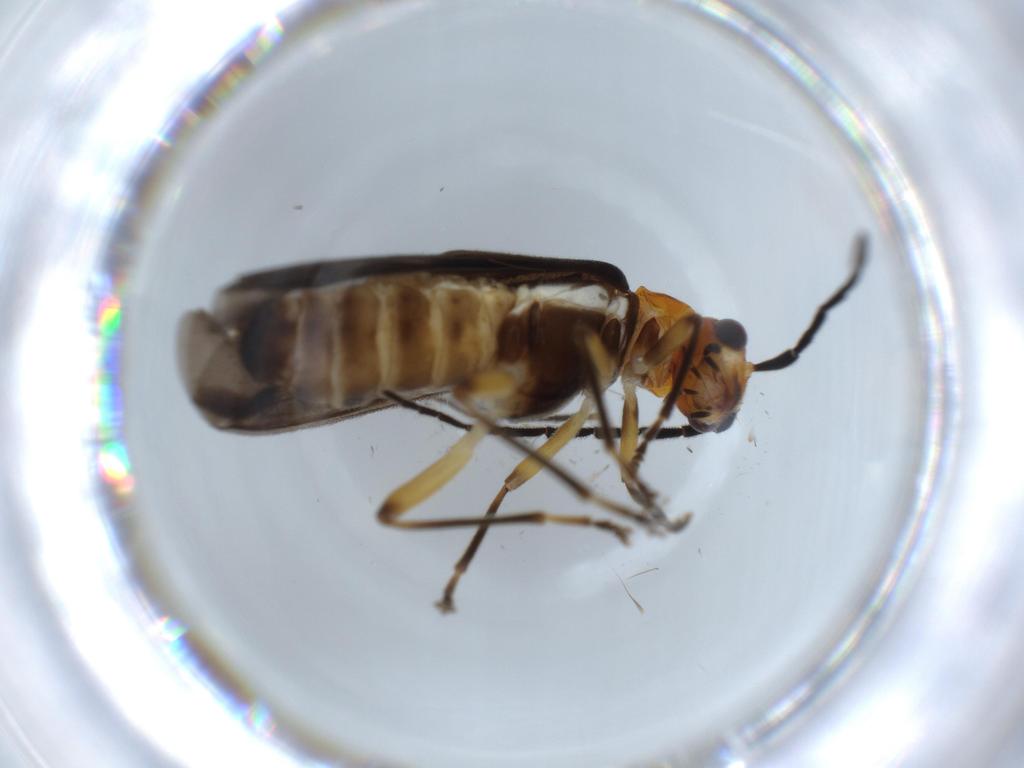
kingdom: Animalia
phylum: Arthropoda
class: Insecta
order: Coleoptera
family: Cantharidae
